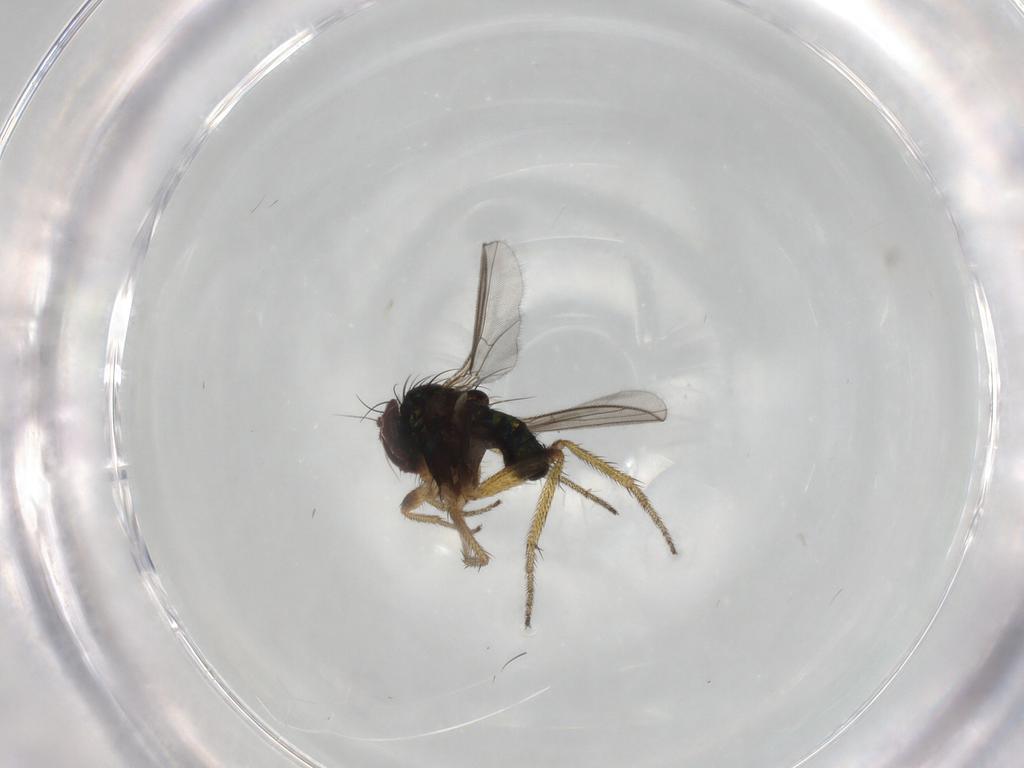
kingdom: Animalia
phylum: Arthropoda
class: Insecta
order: Diptera
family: Dolichopodidae
